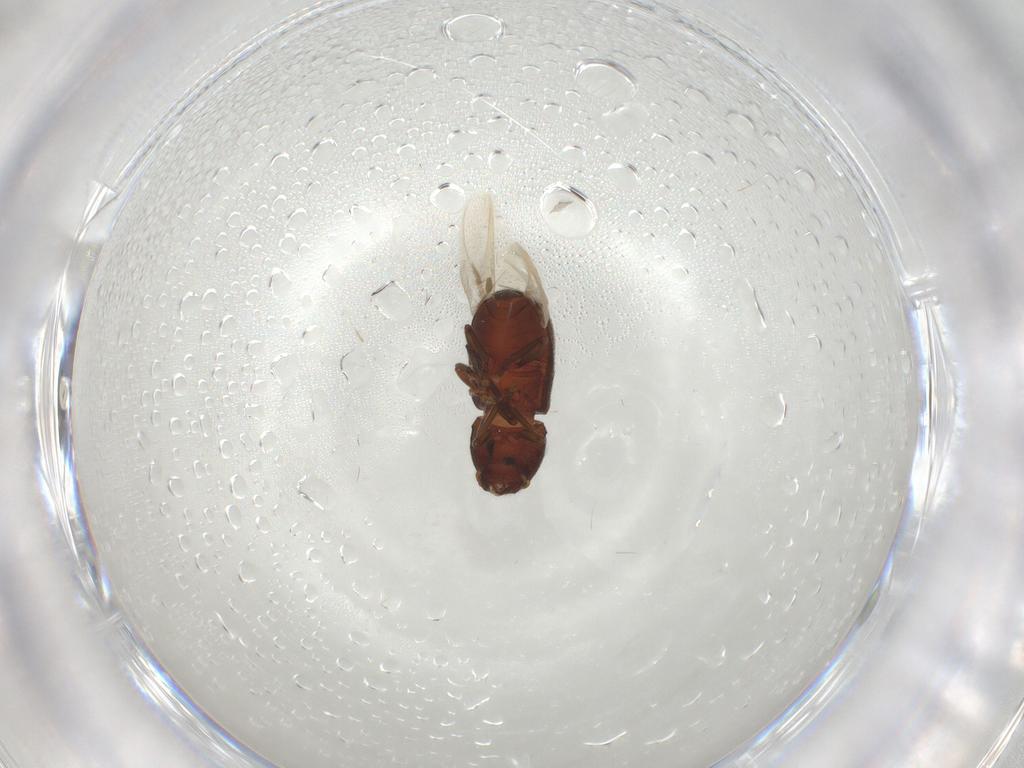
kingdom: Animalia
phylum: Arthropoda
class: Insecta
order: Coleoptera
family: Anthribidae
